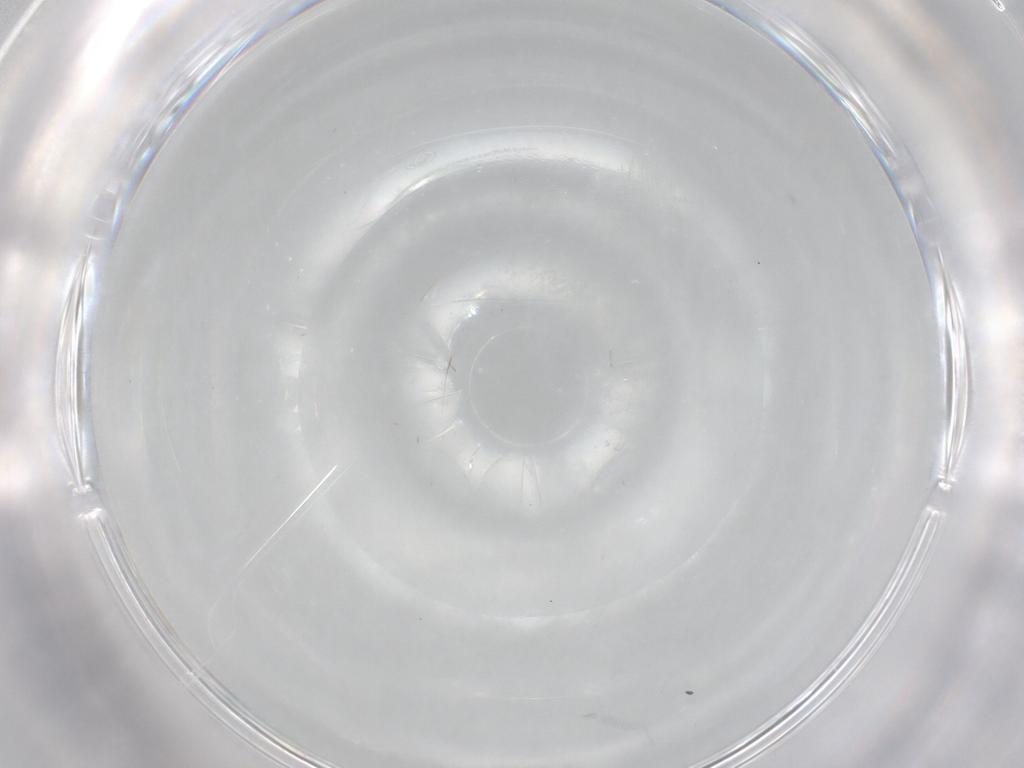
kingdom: Animalia
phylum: Arthropoda
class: Insecta
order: Diptera
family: Cecidomyiidae
